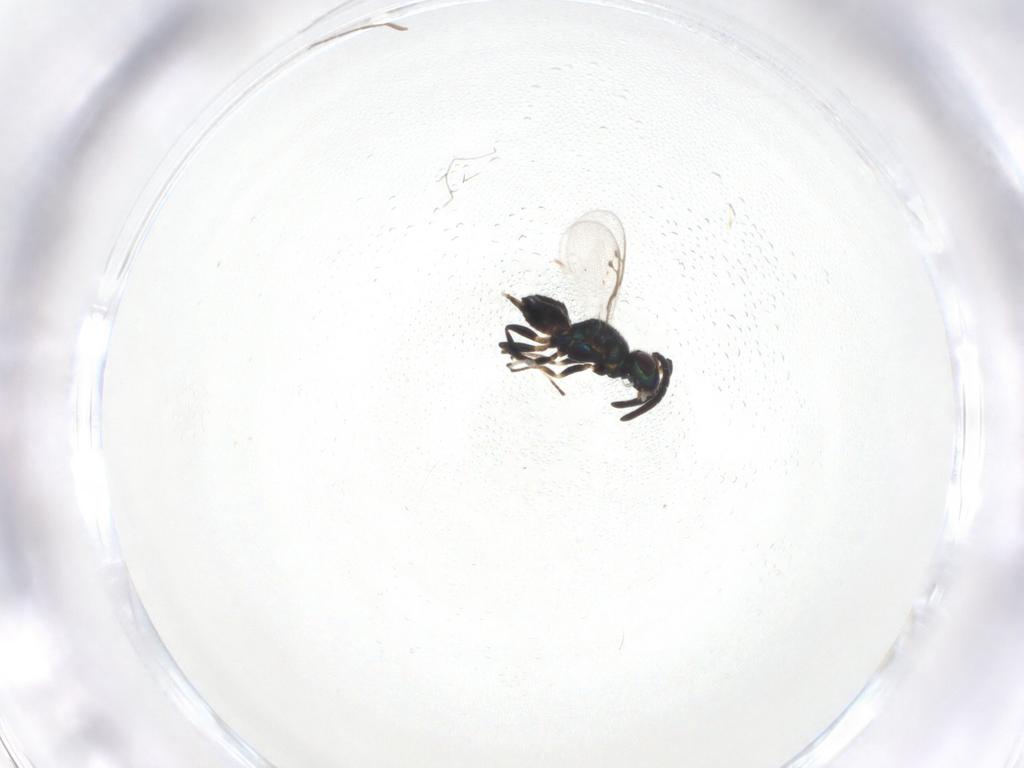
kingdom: Animalia
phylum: Arthropoda
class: Insecta
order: Hymenoptera
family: Eupelmidae
